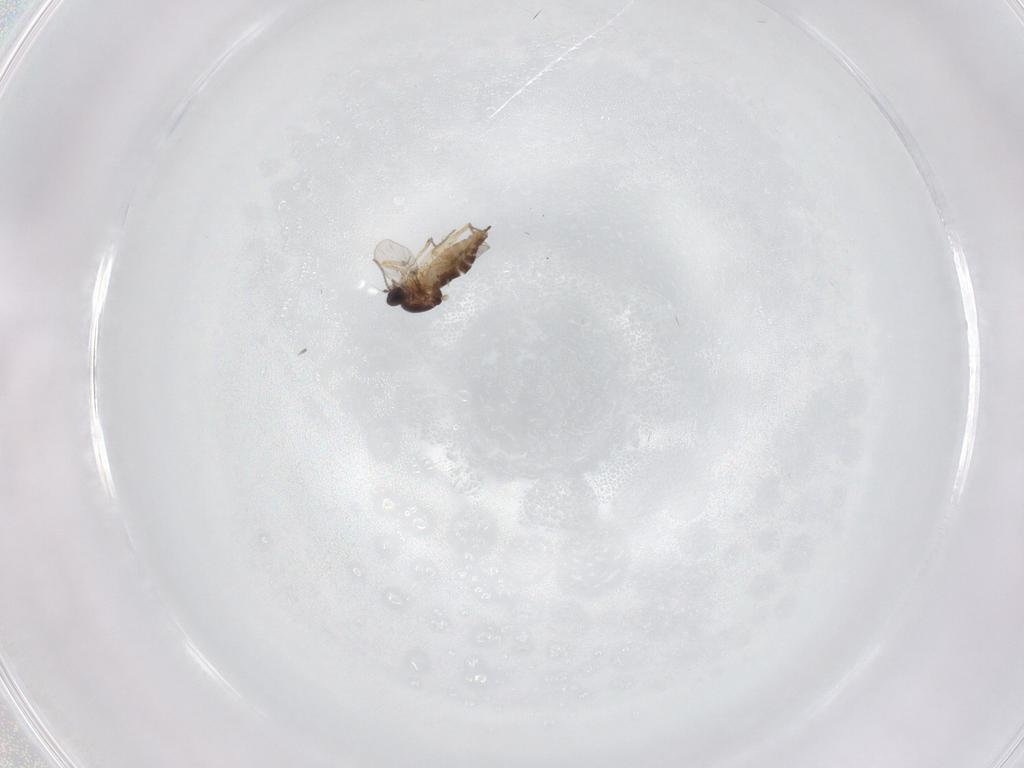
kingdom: Animalia
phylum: Arthropoda
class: Insecta
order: Diptera
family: Ceratopogonidae
